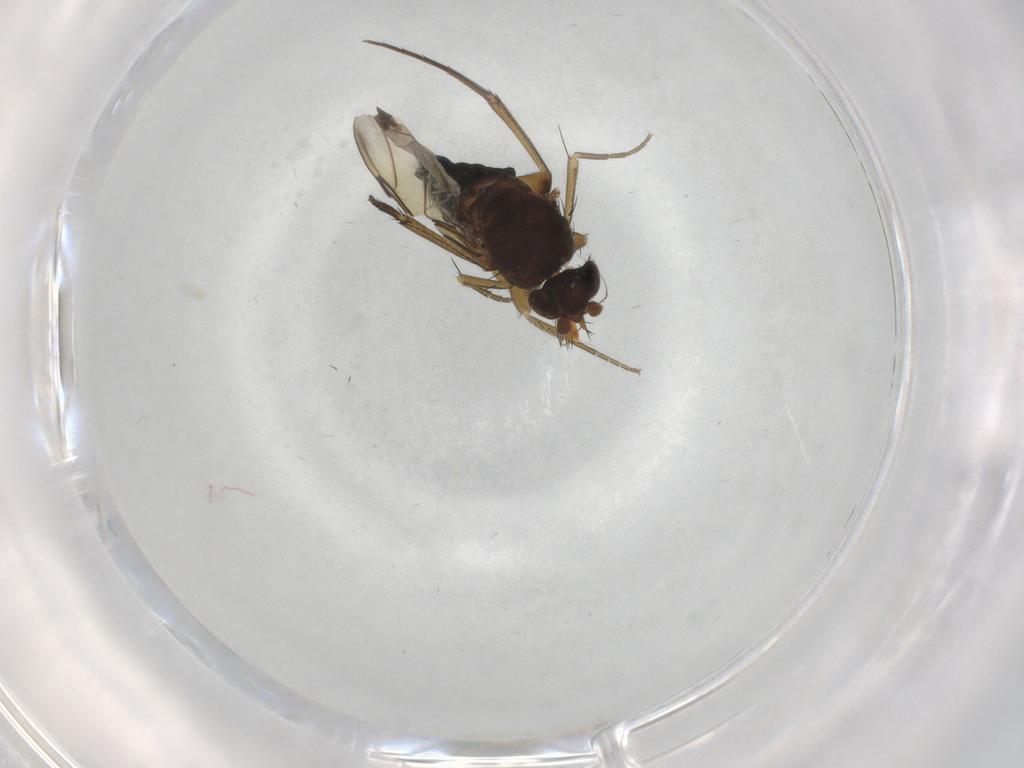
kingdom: Animalia
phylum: Arthropoda
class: Insecta
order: Diptera
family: Phoridae
